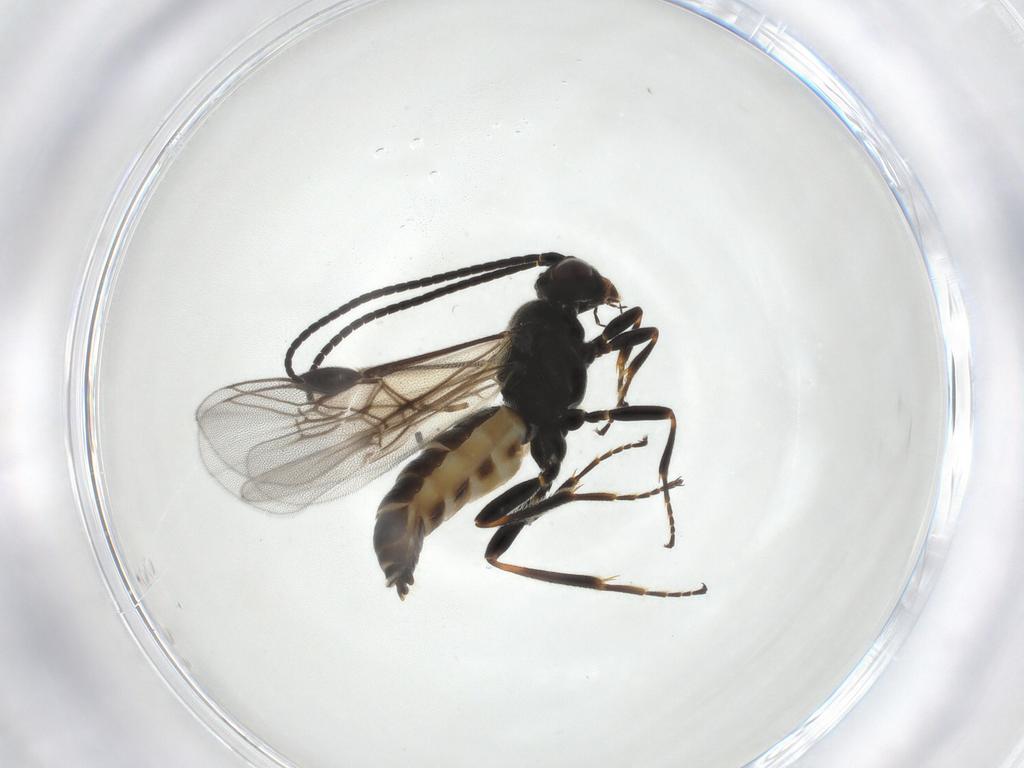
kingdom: Animalia
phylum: Arthropoda
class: Insecta
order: Hymenoptera
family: Braconidae
